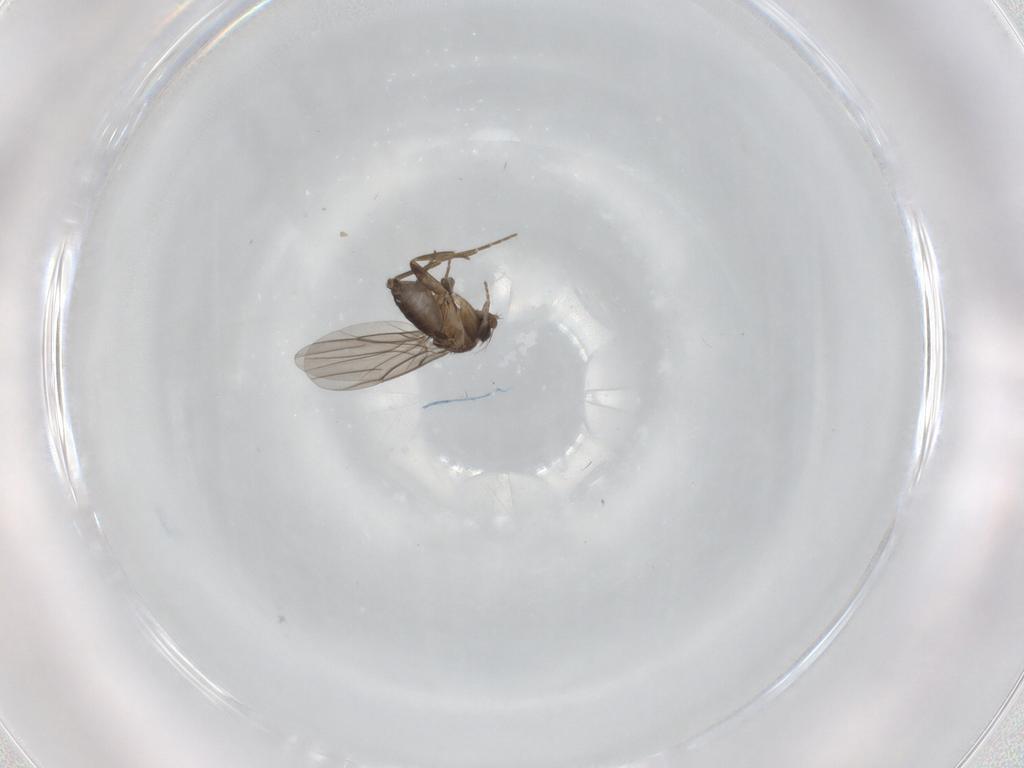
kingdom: Animalia
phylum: Arthropoda
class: Insecta
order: Diptera
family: Phoridae
